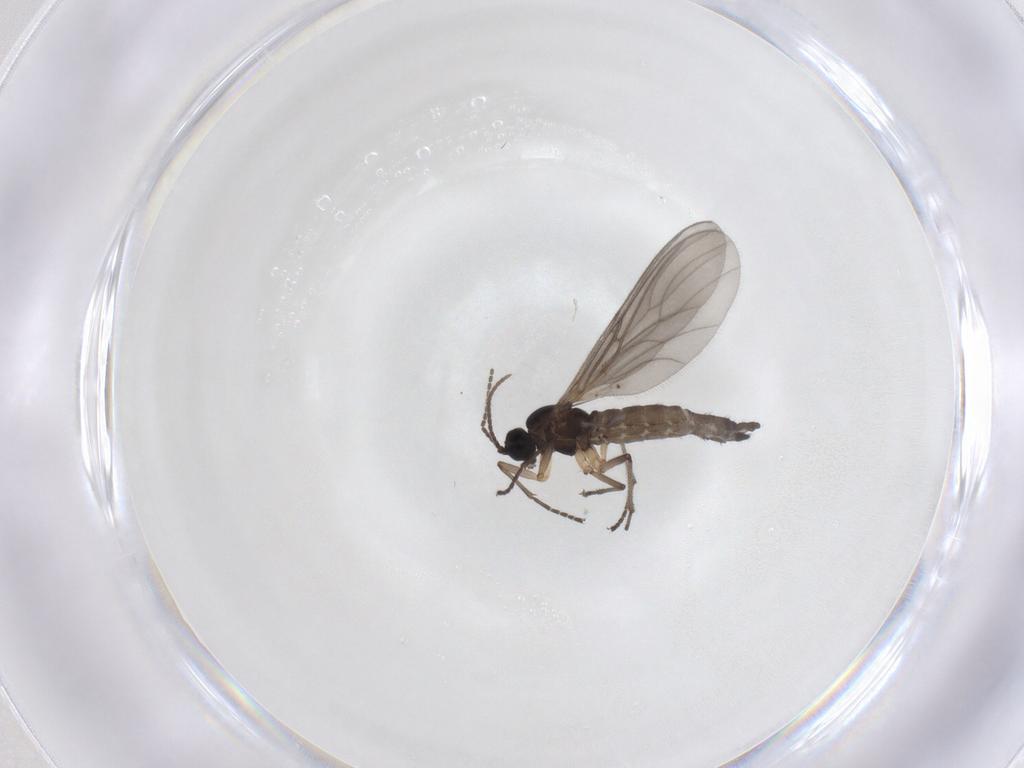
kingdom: Animalia
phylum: Arthropoda
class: Insecta
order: Diptera
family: Sciaridae
